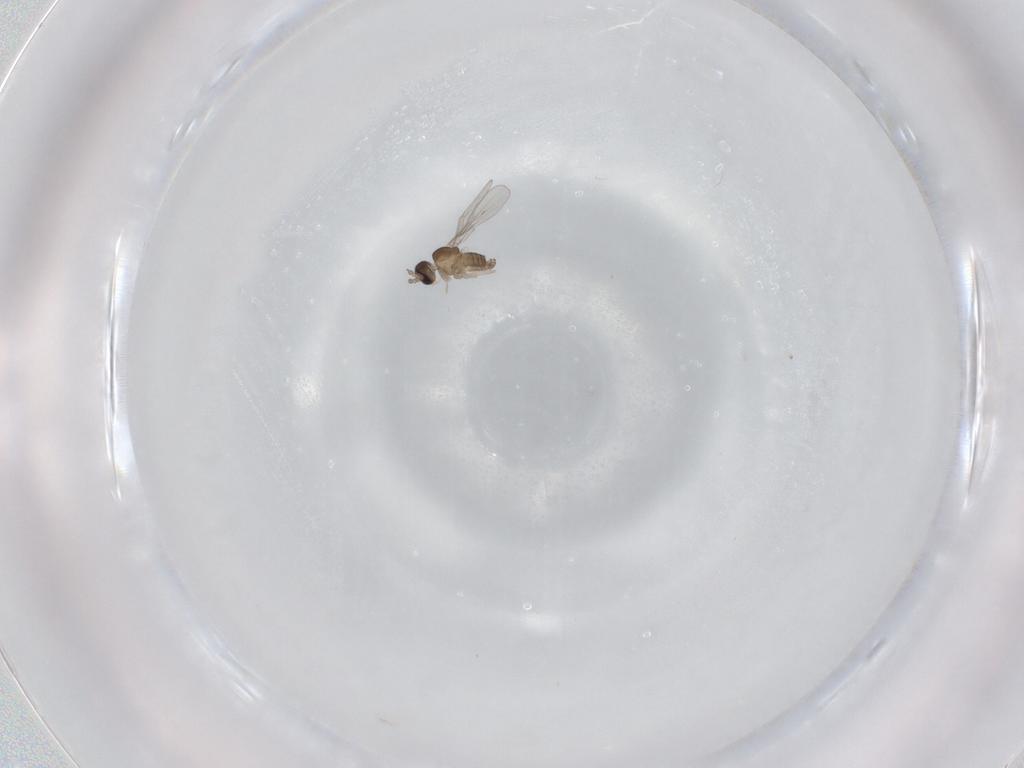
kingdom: Animalia
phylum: Arthropoda
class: Insecta
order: Diptera
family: Cecidomyiidae
